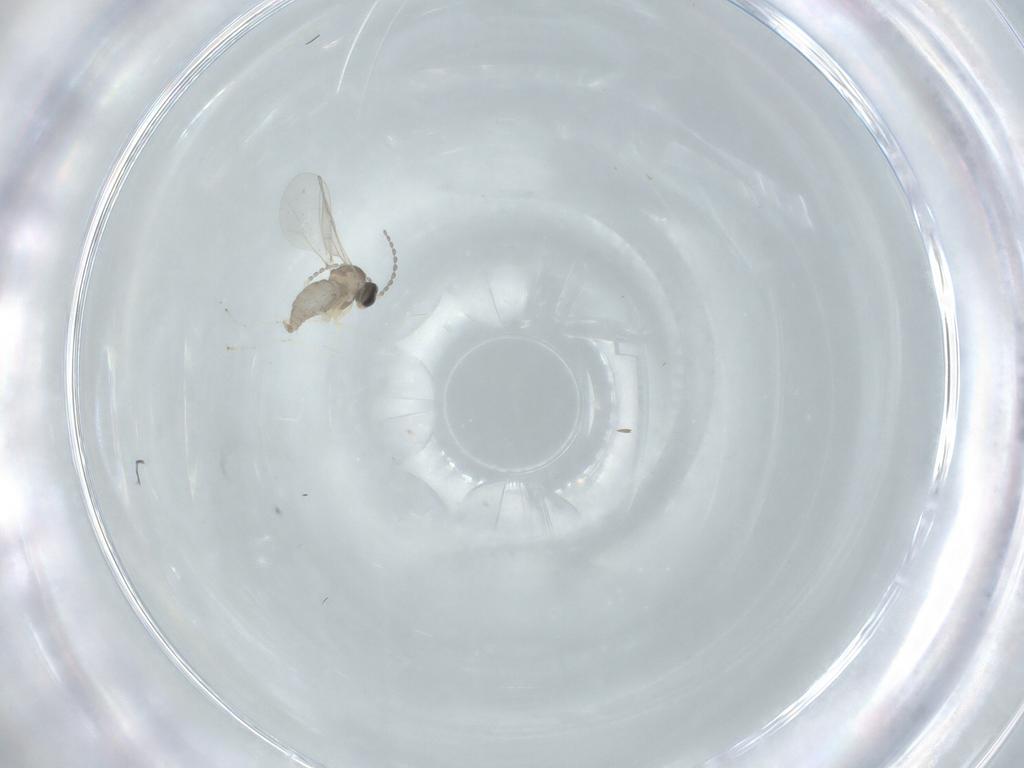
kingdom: Animalia
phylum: Arthropoda
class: Insecta
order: Diptera
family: Cecidomyiidae
